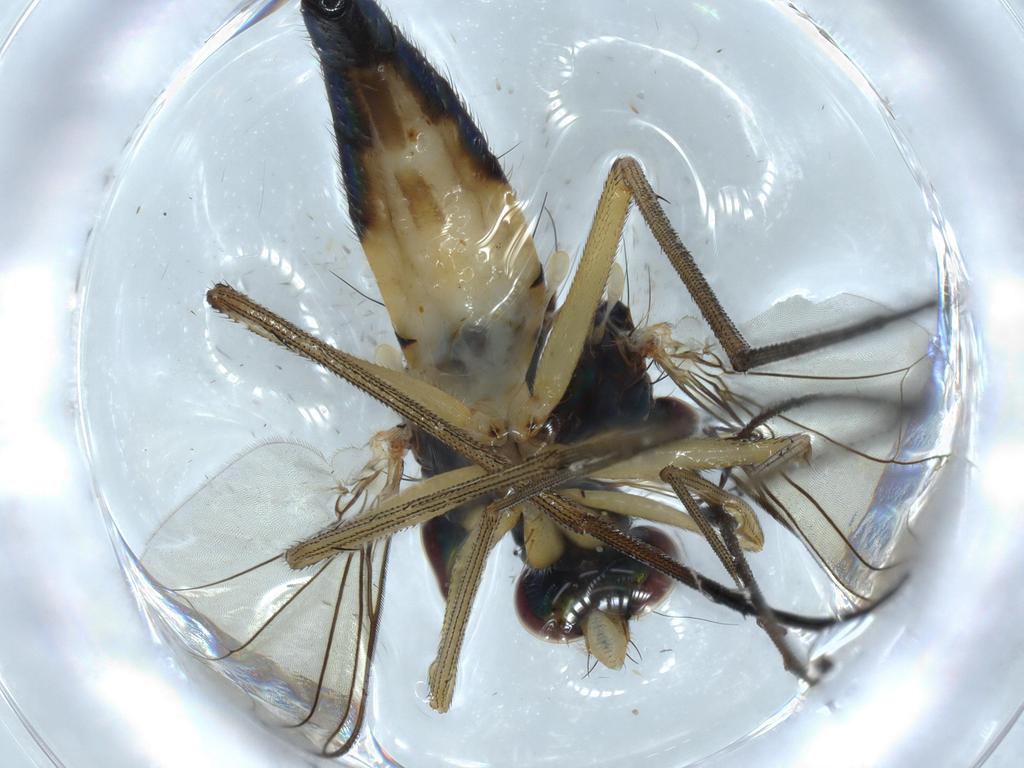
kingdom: Animalia
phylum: Arthropoda
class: Insecta
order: Diptera
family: Dolichopodidae
